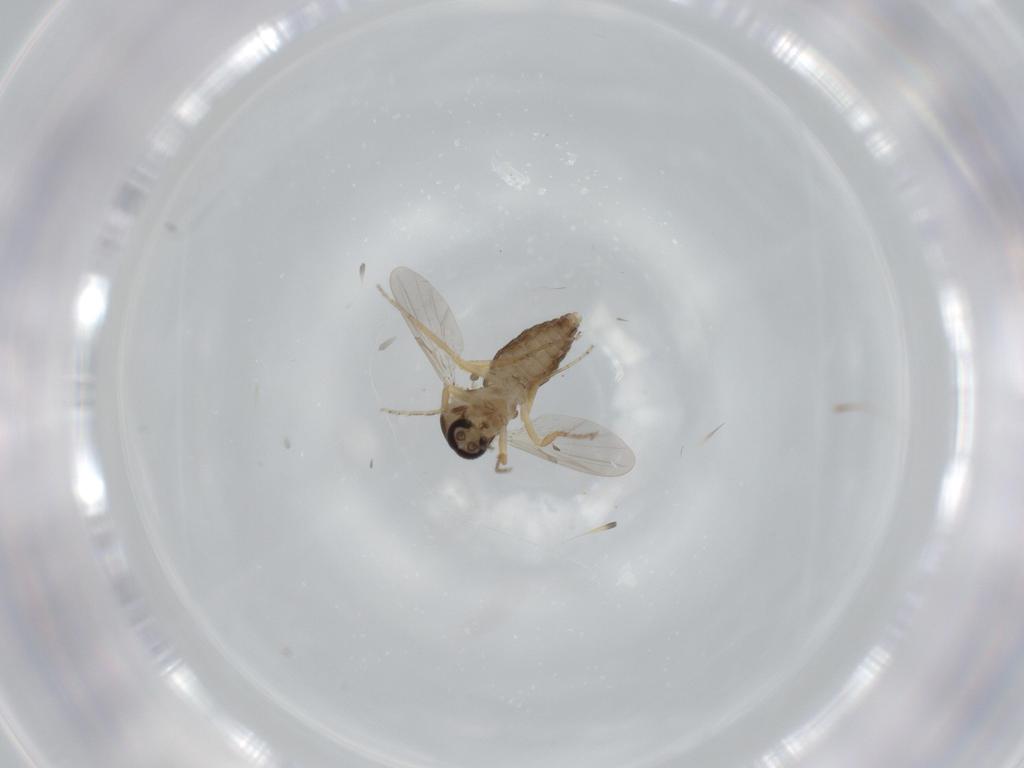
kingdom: Animalia
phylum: Arthropoda
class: Insecta
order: Diptera
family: Ceratopogonidae
